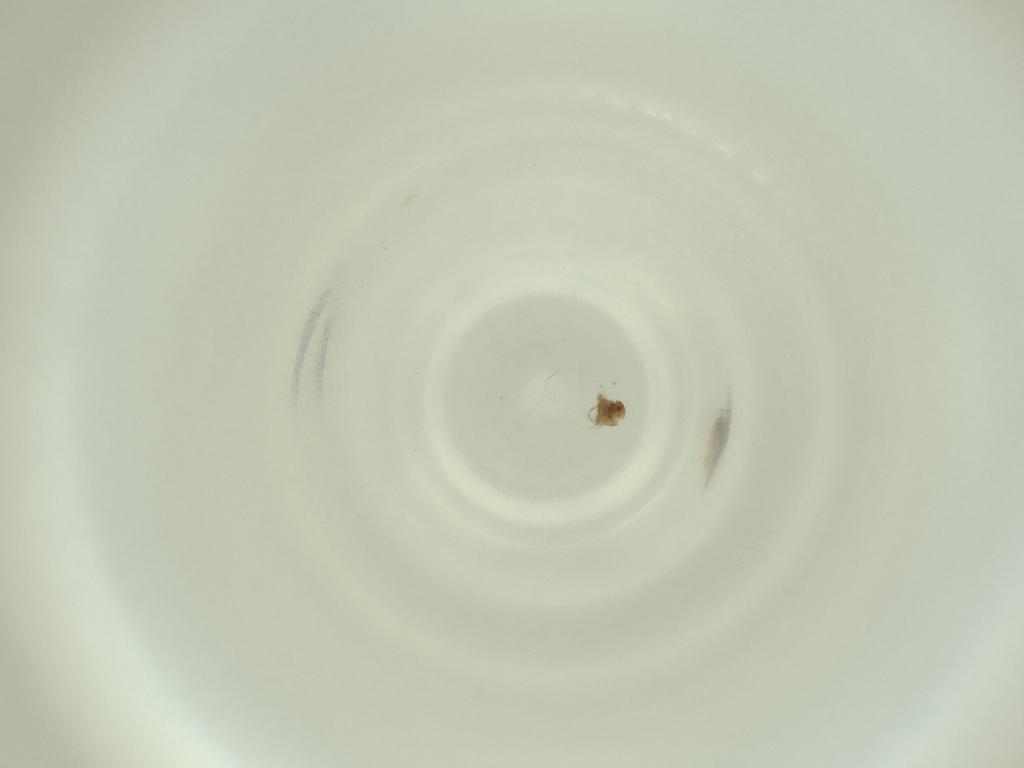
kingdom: Animalia
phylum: Arthropoda
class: Insecta
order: Diptera
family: Cecidomyiidae
